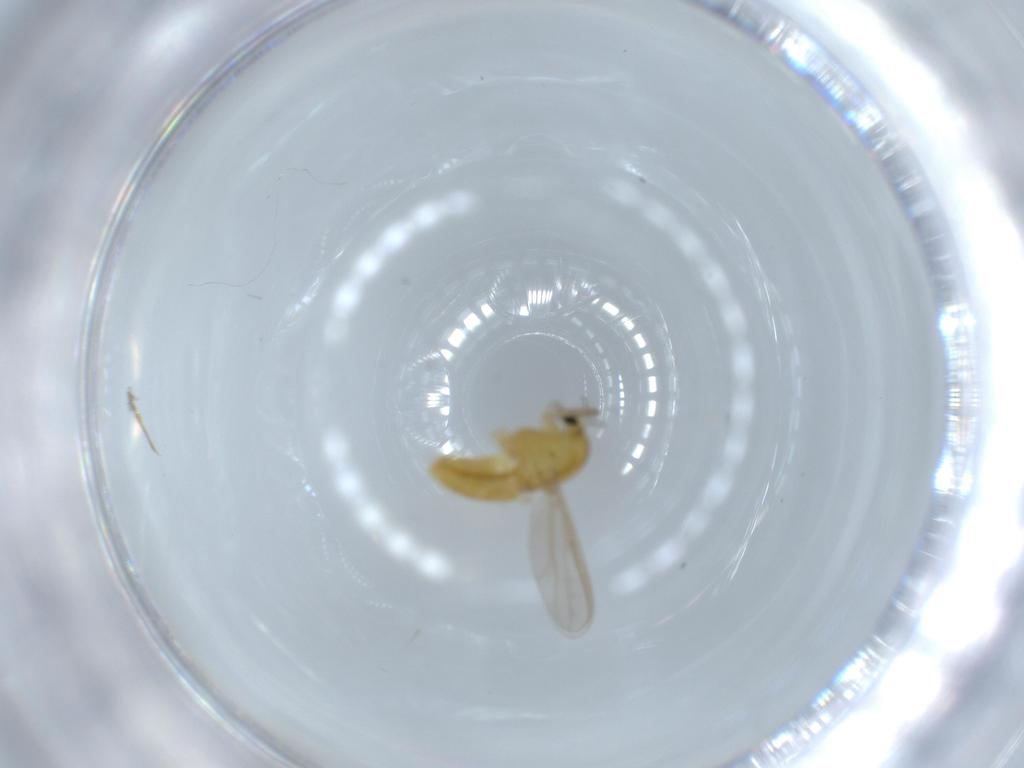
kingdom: Animalia
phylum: Arthropoda
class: Insecta
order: Diptera
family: Chironomidae
